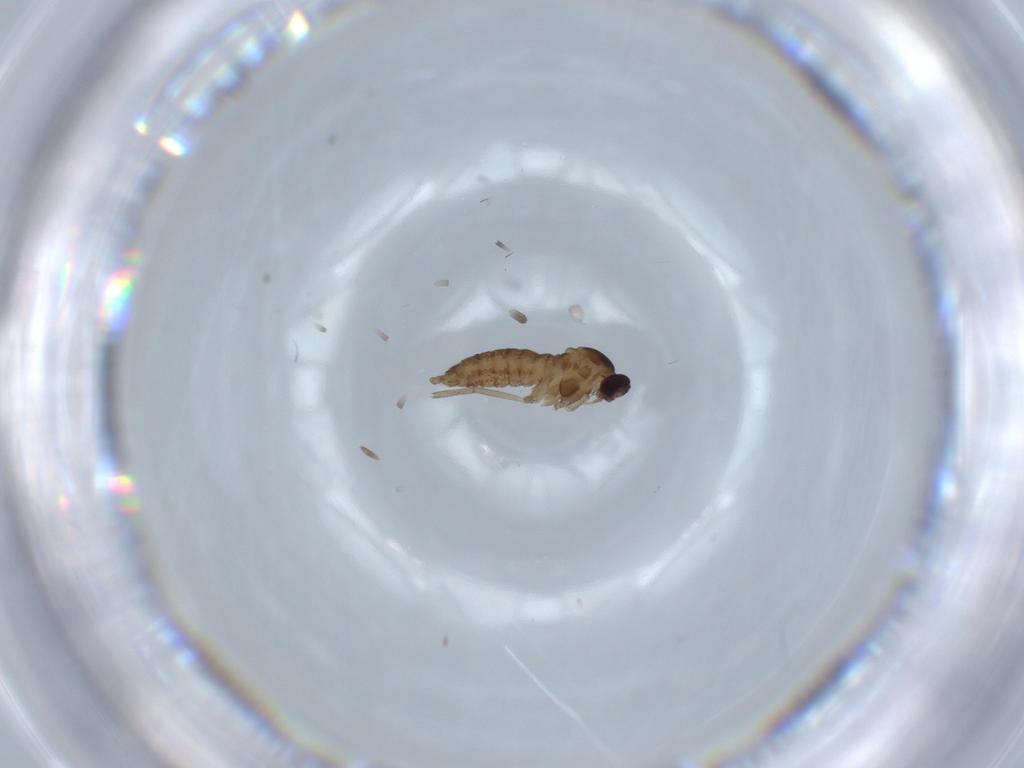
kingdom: Animalia
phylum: Arthropoda
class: Insecta
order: Diptera
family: Cecidomyiidae
